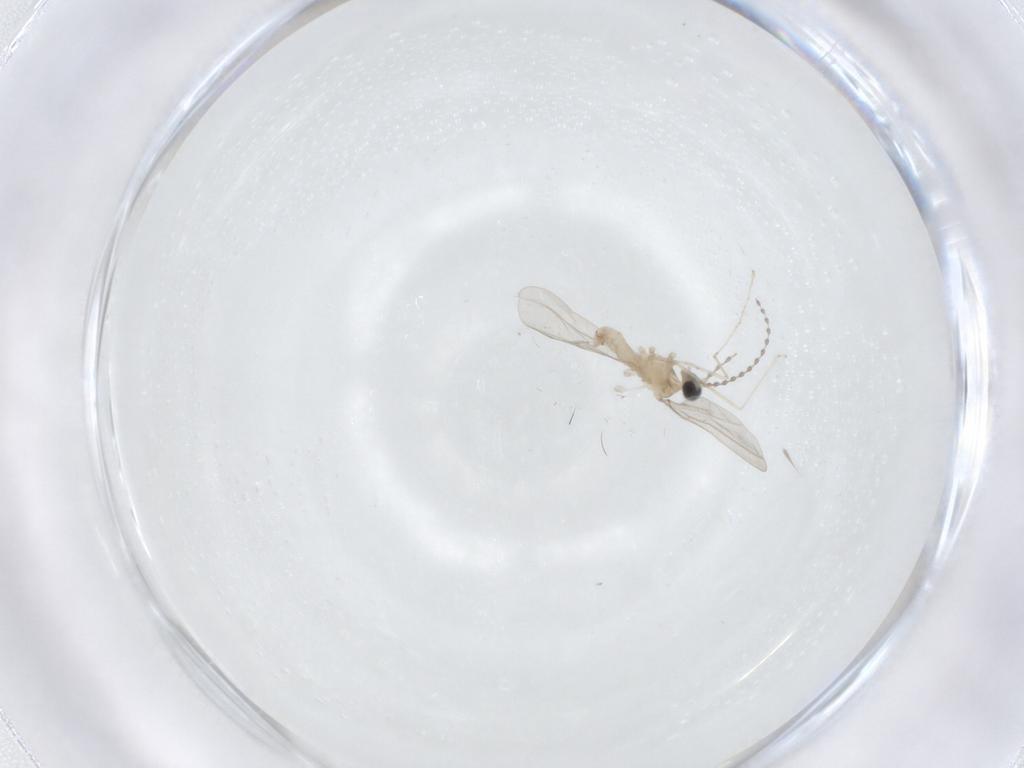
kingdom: Animalia
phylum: Arthropoda
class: Insecta
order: Diptera
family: Cecidomyiidae
